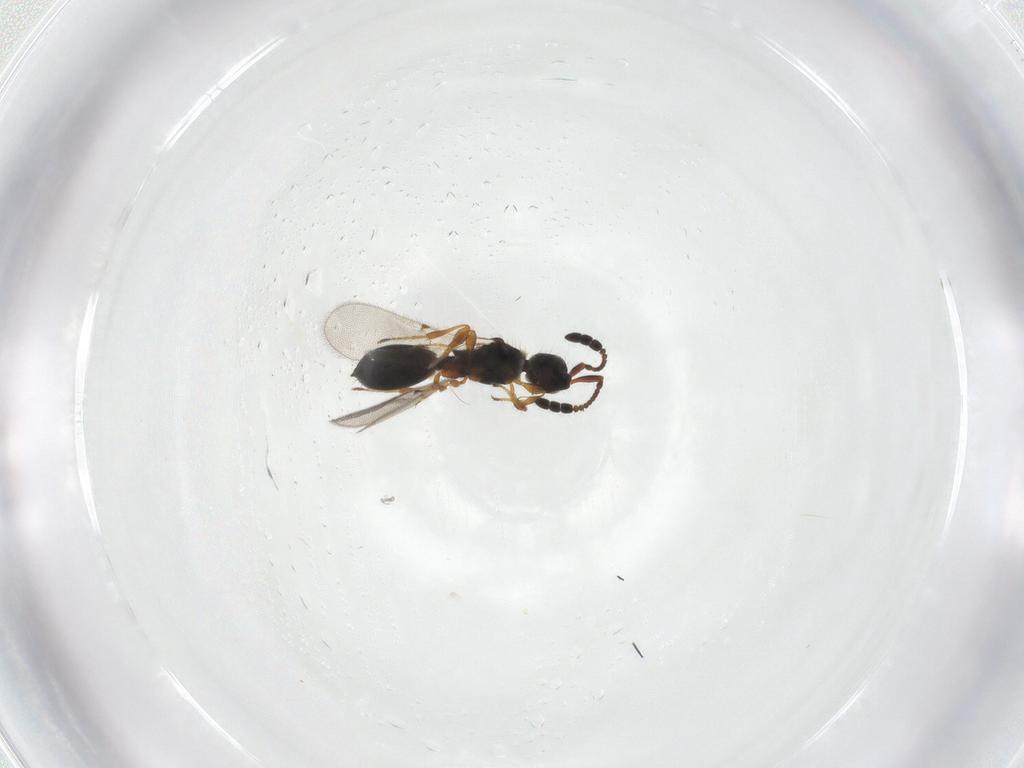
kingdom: Animalia
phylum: Arthropoda
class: Insecta
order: Hymenoptera
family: Diapriidae
